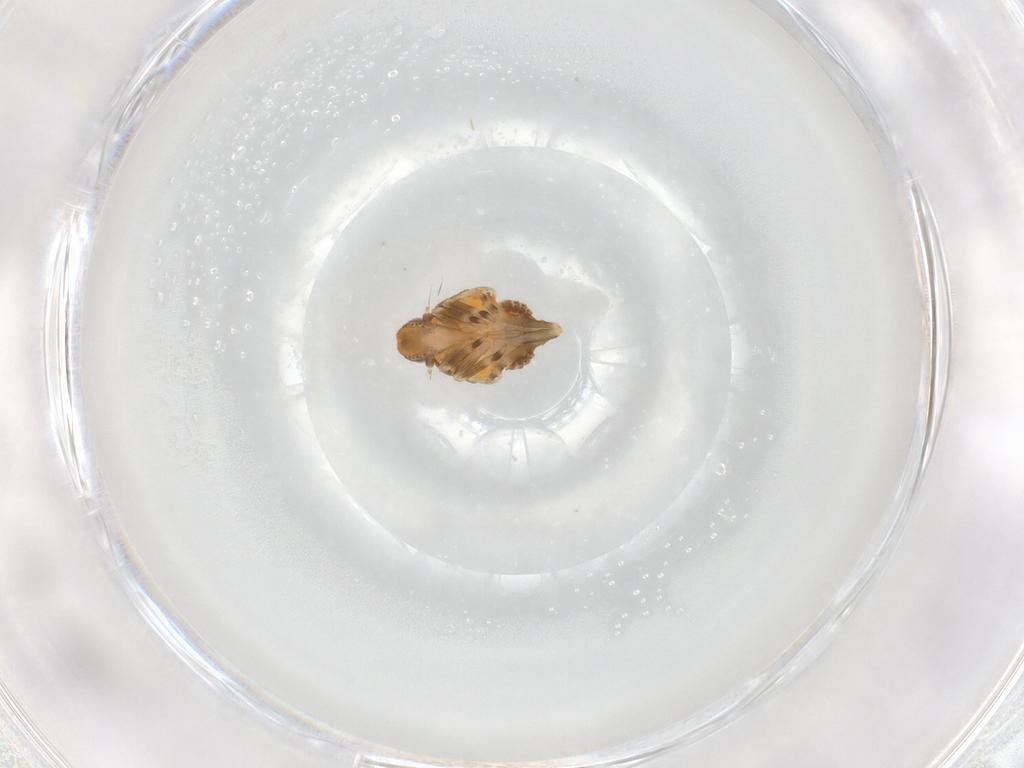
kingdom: Animalia
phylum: Arthropoda
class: Insecta
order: Hemiptera
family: Flatidae
